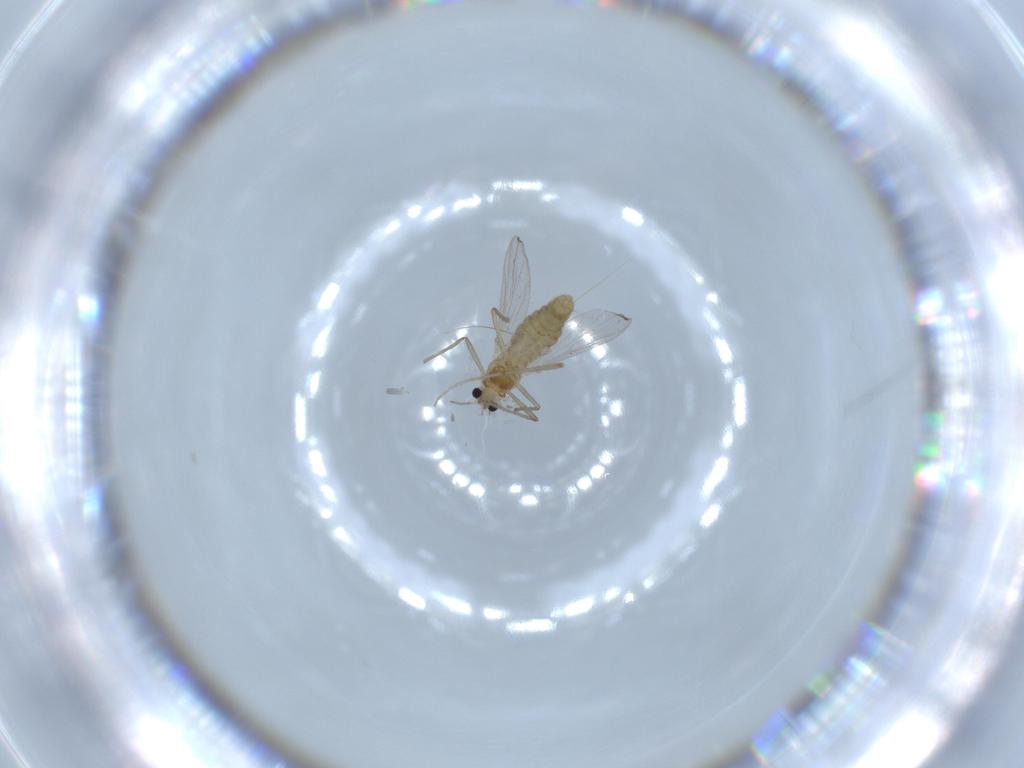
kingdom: Animalia
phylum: Arthropoda
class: Insecta
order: Diptera
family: Chironomidae
